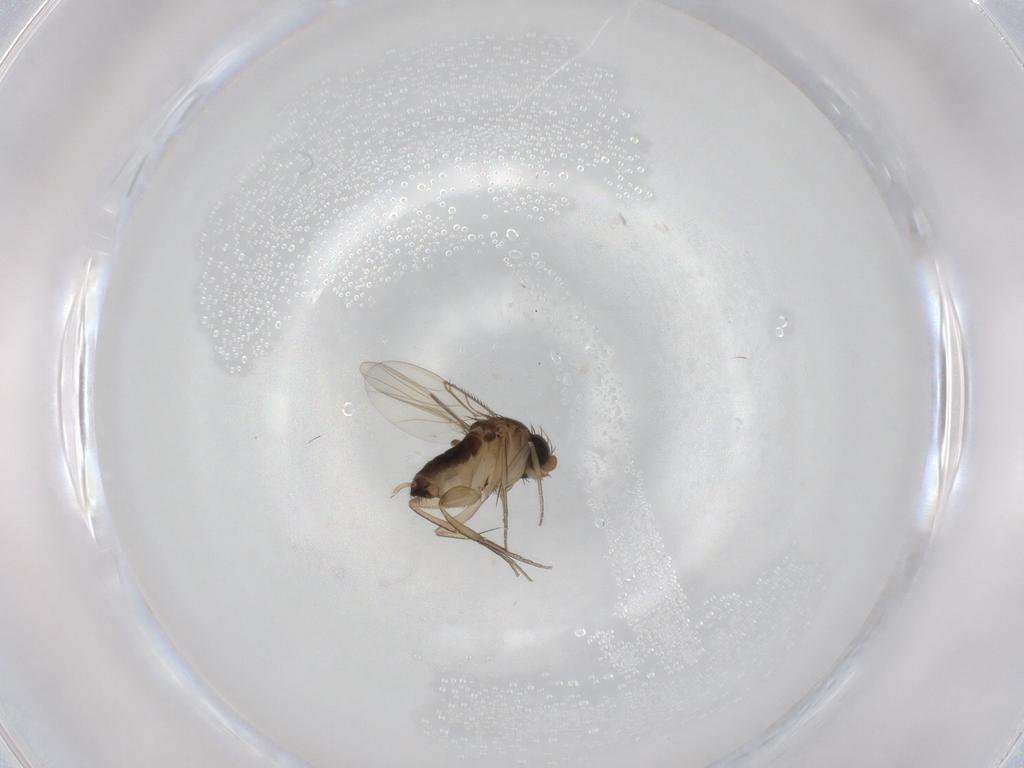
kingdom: Animalia
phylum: Arthropoda
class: Insecta
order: Diptera
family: Phoridae
